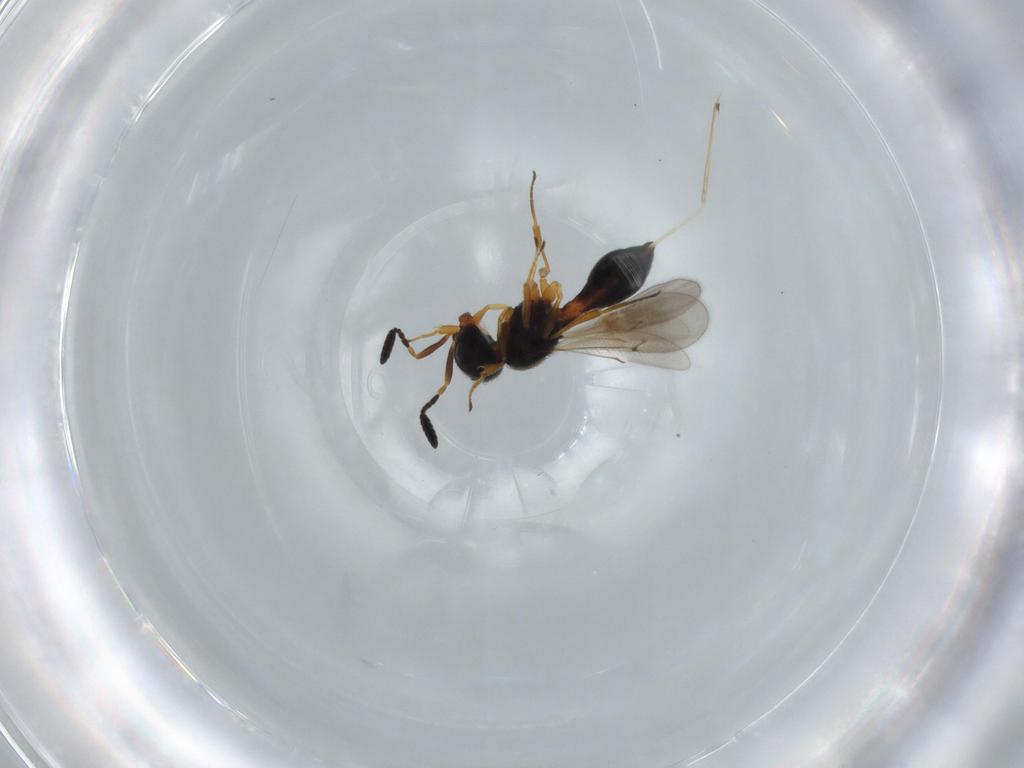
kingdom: Animalia
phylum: Arthropoda
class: Insecta
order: Hymenoptera
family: Scelionidae
